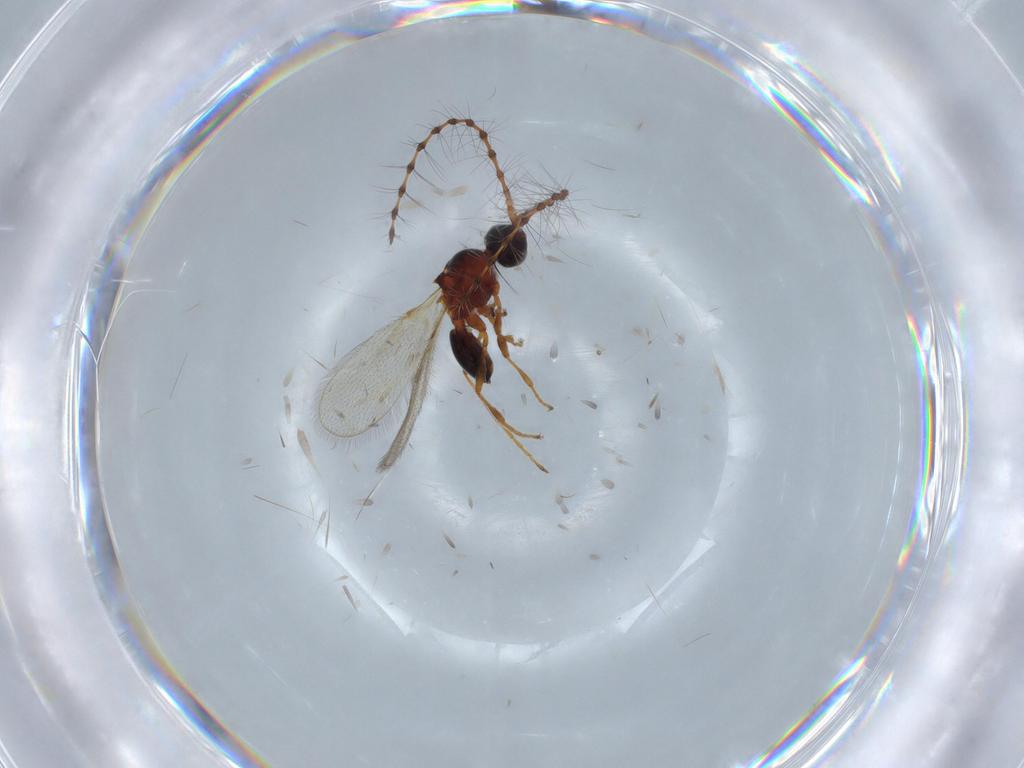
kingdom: Animalia
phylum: Arthropoda
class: Insecta
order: Hymenoptera
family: Diapriidae
